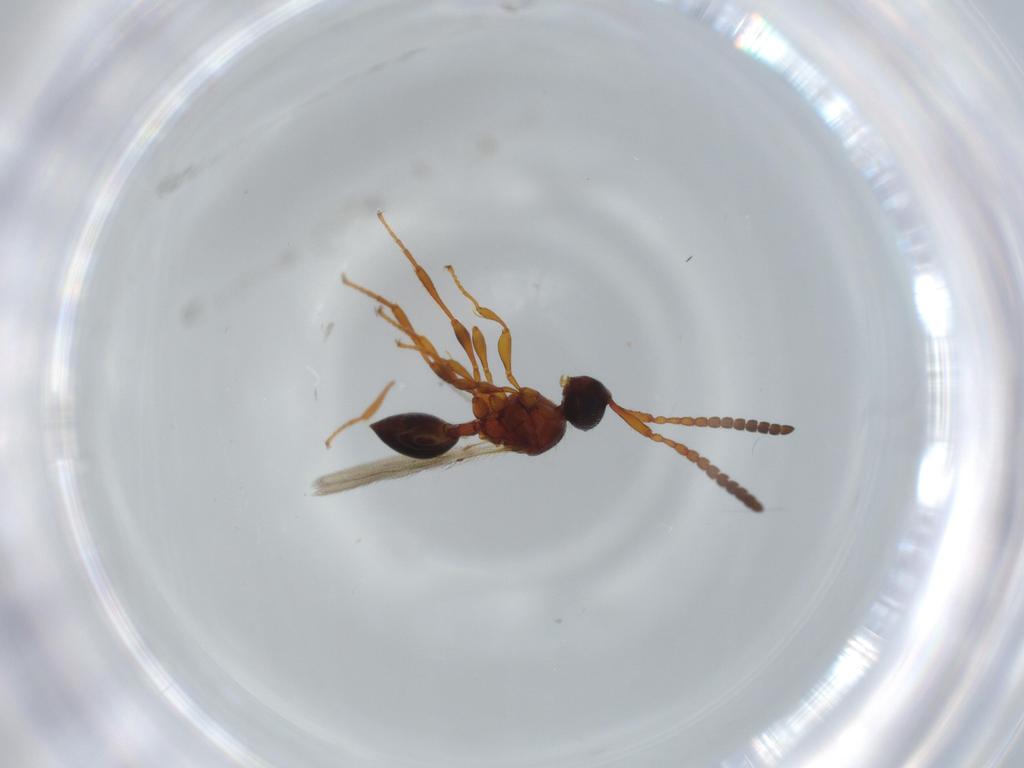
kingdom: Animalia
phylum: Arthropoda
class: Insecta
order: Hymenoptera
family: Diapriidae
